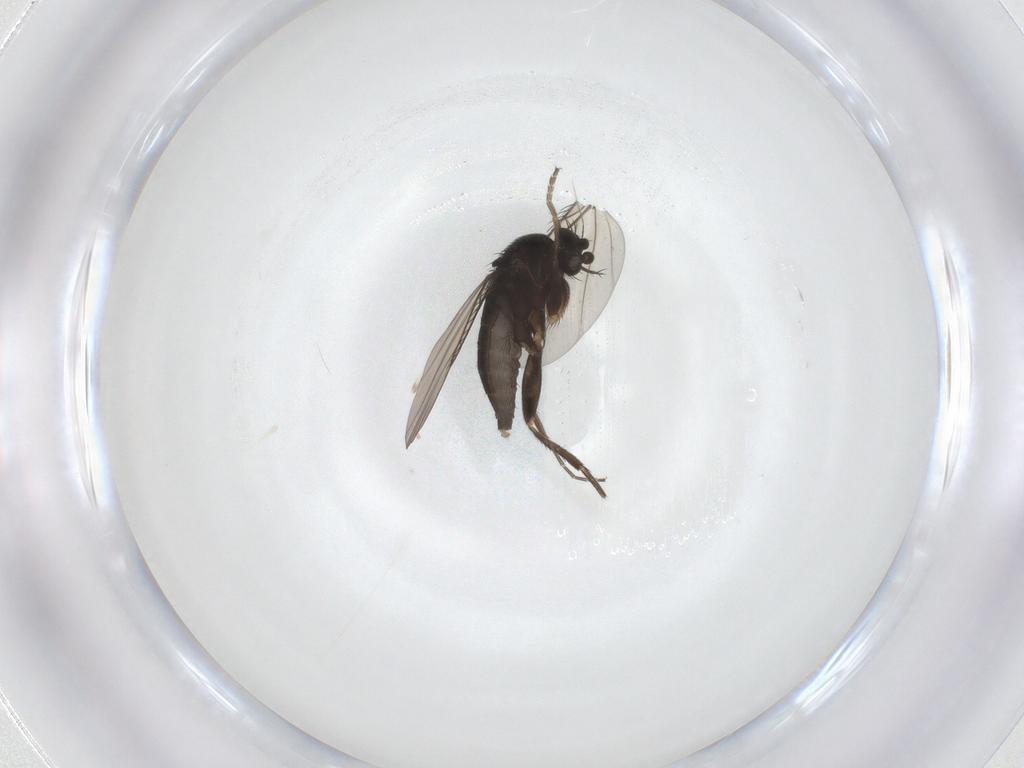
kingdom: Animalia
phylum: Arthropoda
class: Insecta
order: Diptera
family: Phoridae
